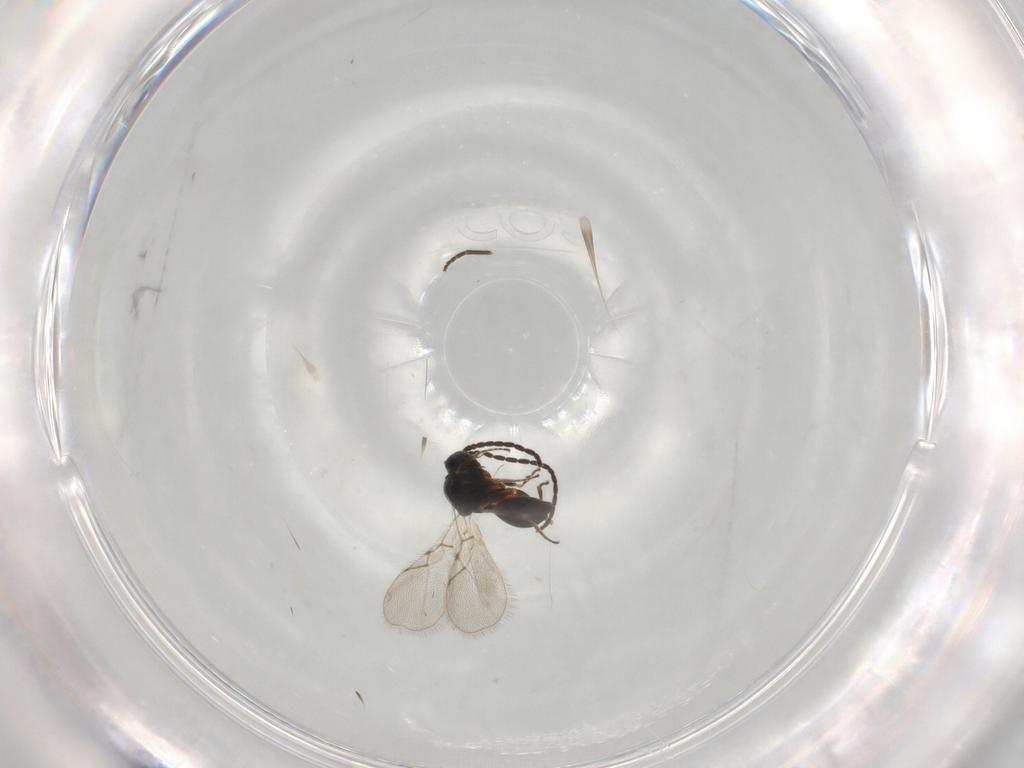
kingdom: Animalia
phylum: Arthropoda
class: Insecta
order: Hymenoptera
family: Figitidae
